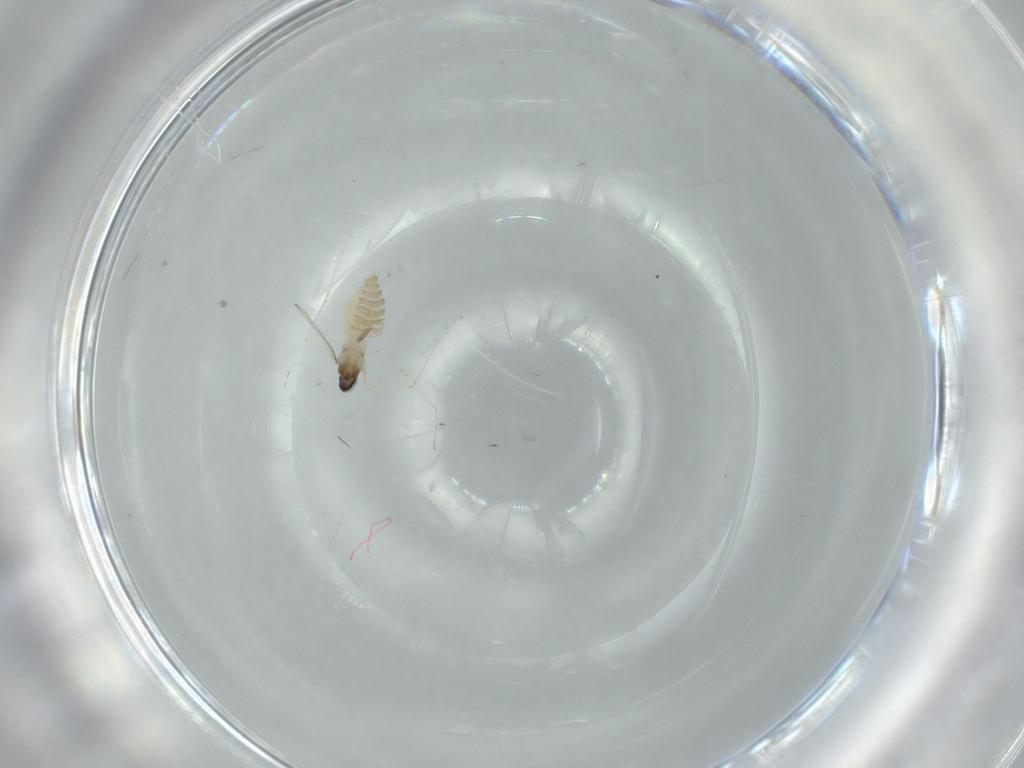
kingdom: Animalia
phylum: Arthropoda
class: Insecta
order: Diptera
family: Cecidomyiidae
